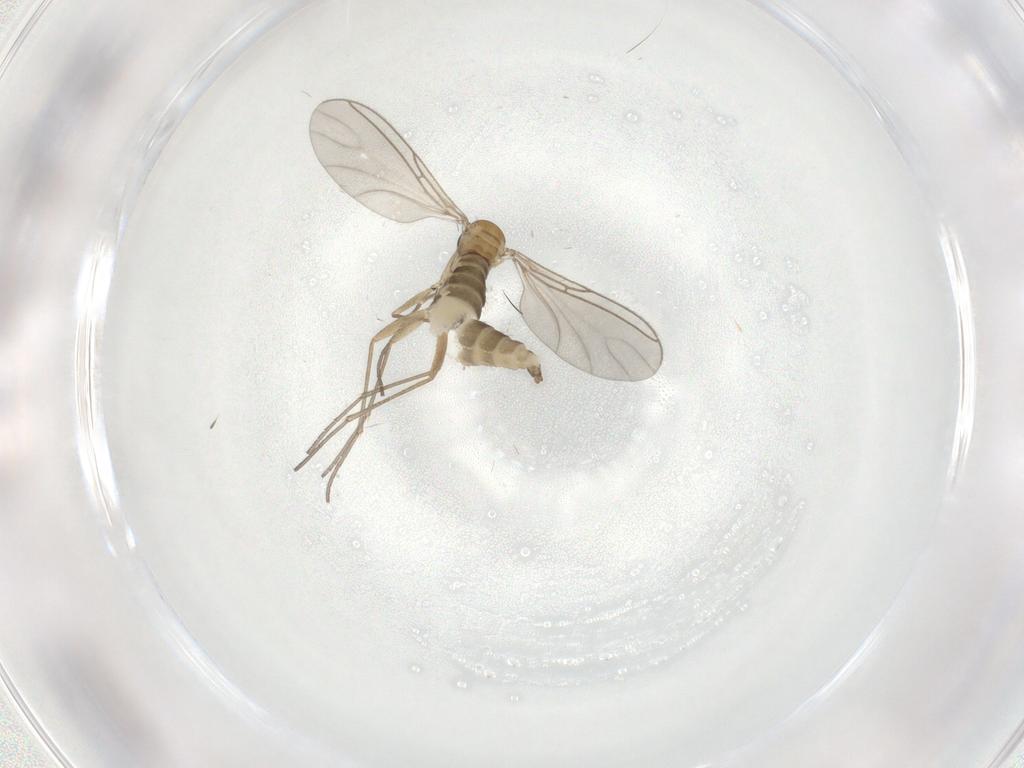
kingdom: Animalia
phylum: Arthropoda
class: Insecta
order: Diptera
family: Sciaridae
